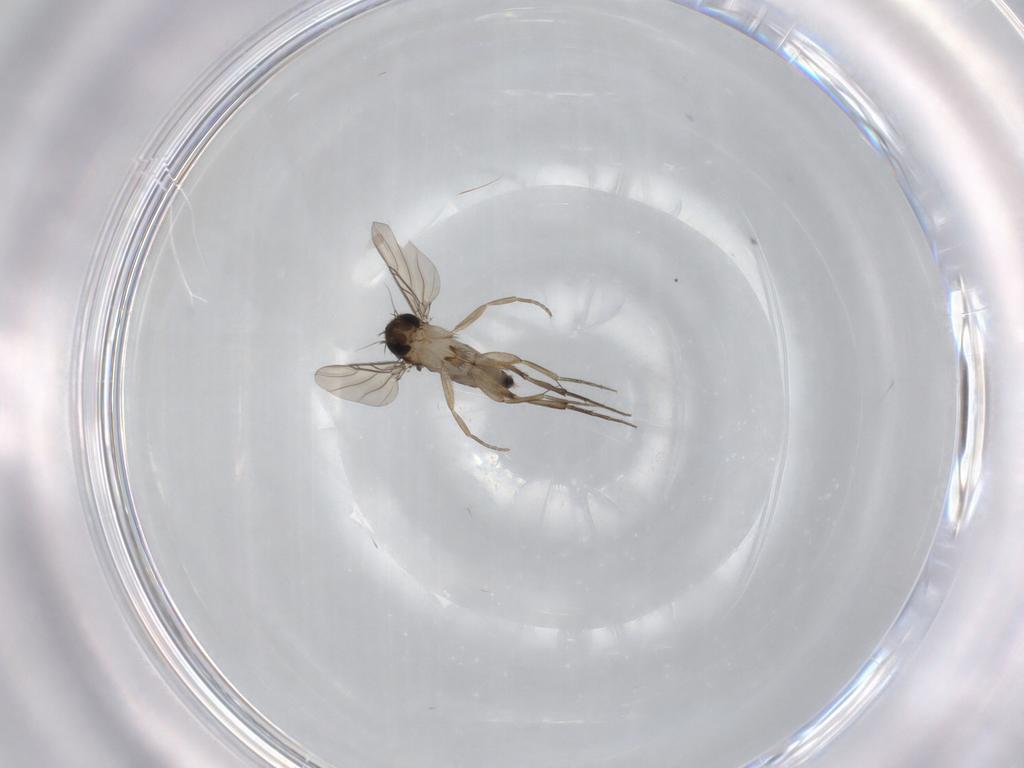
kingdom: Animalia
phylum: Arthropoda
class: Insecta
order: Diptera
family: Phoridae
